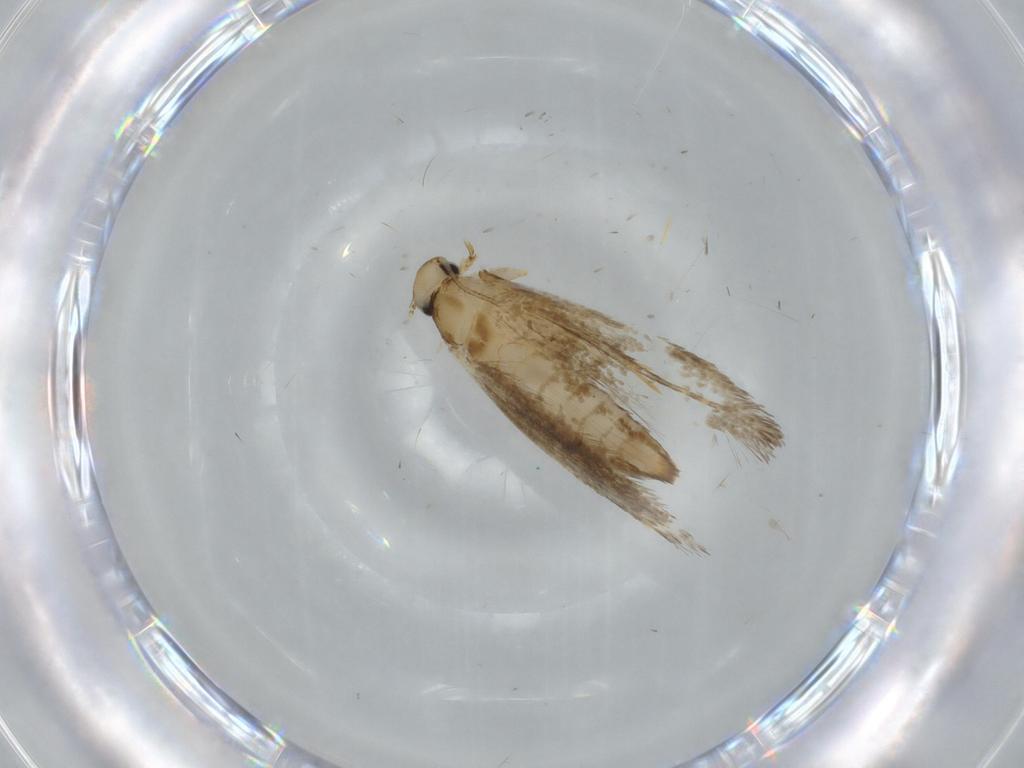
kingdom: Animalia
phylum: Arthropoda
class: Insecta
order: Lepidoptera
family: Tineidae
